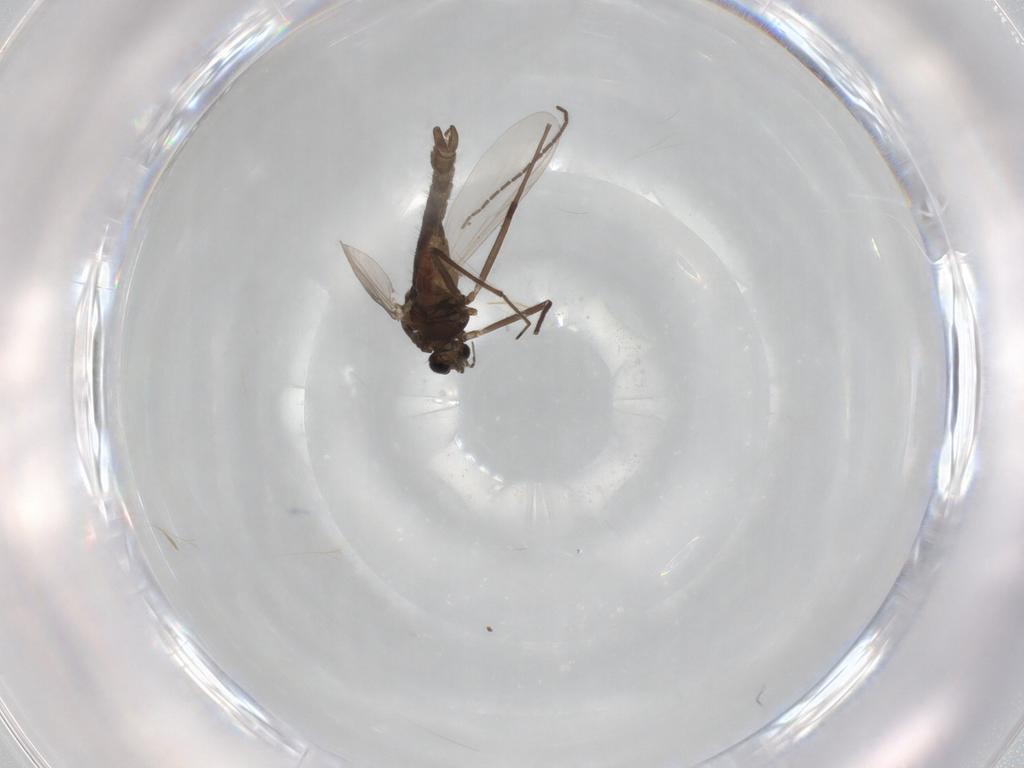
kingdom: Animalia
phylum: Arthropoda
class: Insecta
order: Diptera
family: Chironomidae
